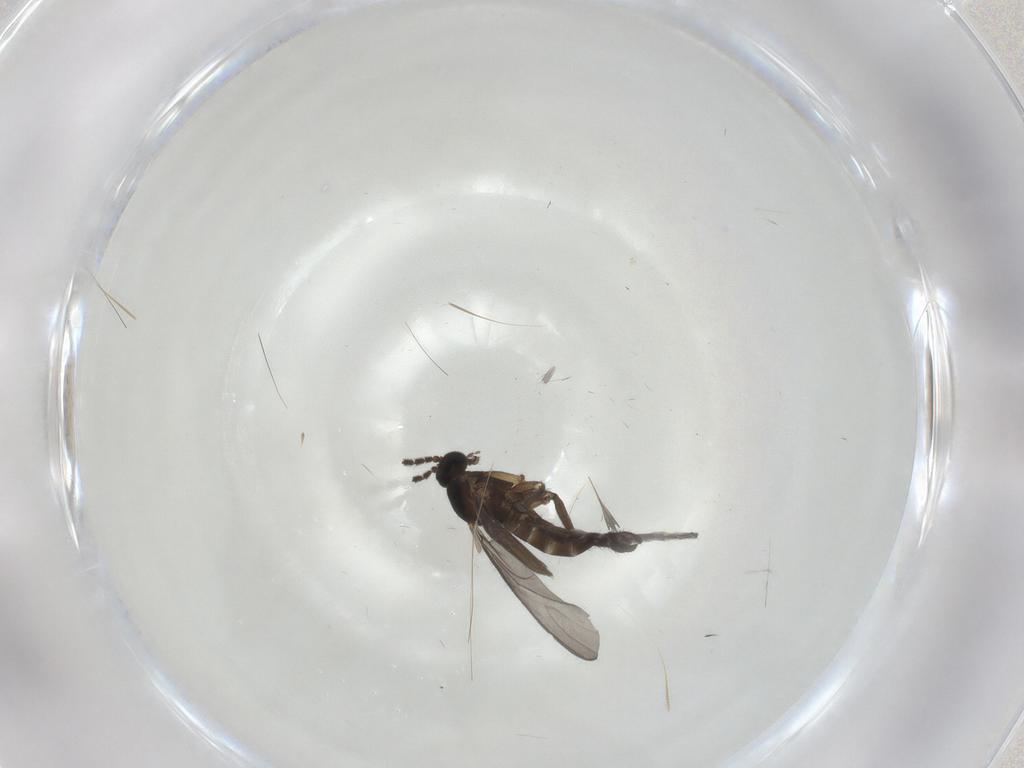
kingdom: Animalia
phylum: Arthropoda
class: Insecta
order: Diptera
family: Sciaridae
